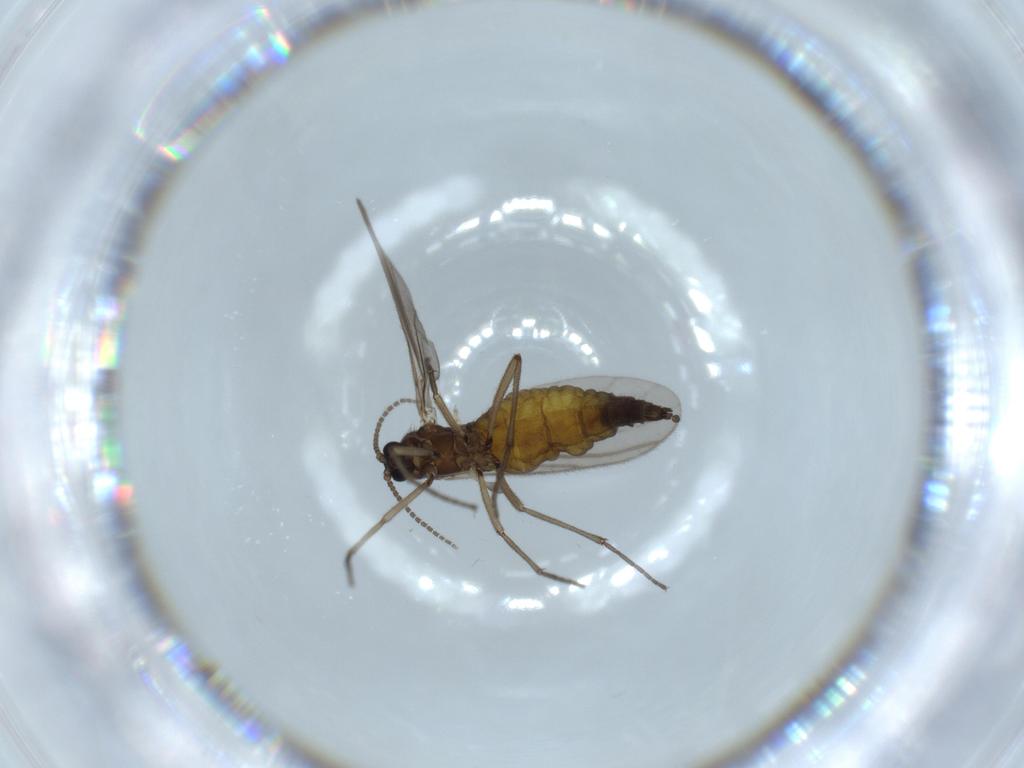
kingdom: Animalia
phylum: Arthropoda
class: Insecta
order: Diptera
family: Sciaridae
